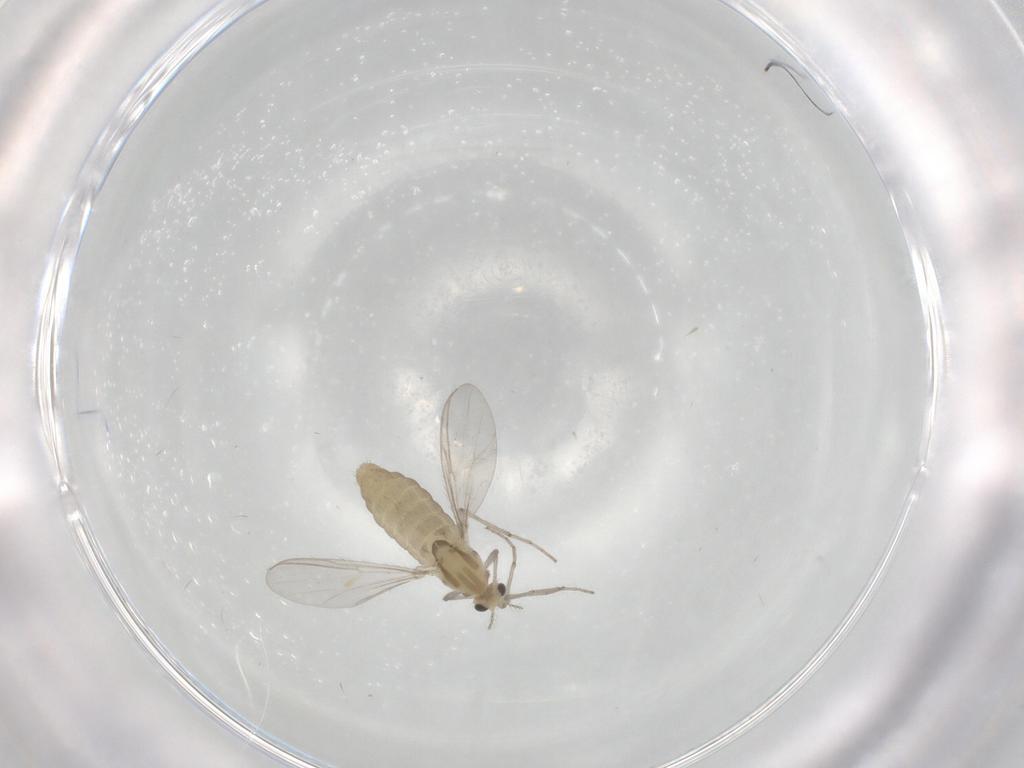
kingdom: Animalia
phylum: Arthropoda
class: Insecta
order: Diptera
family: Chironomidae
